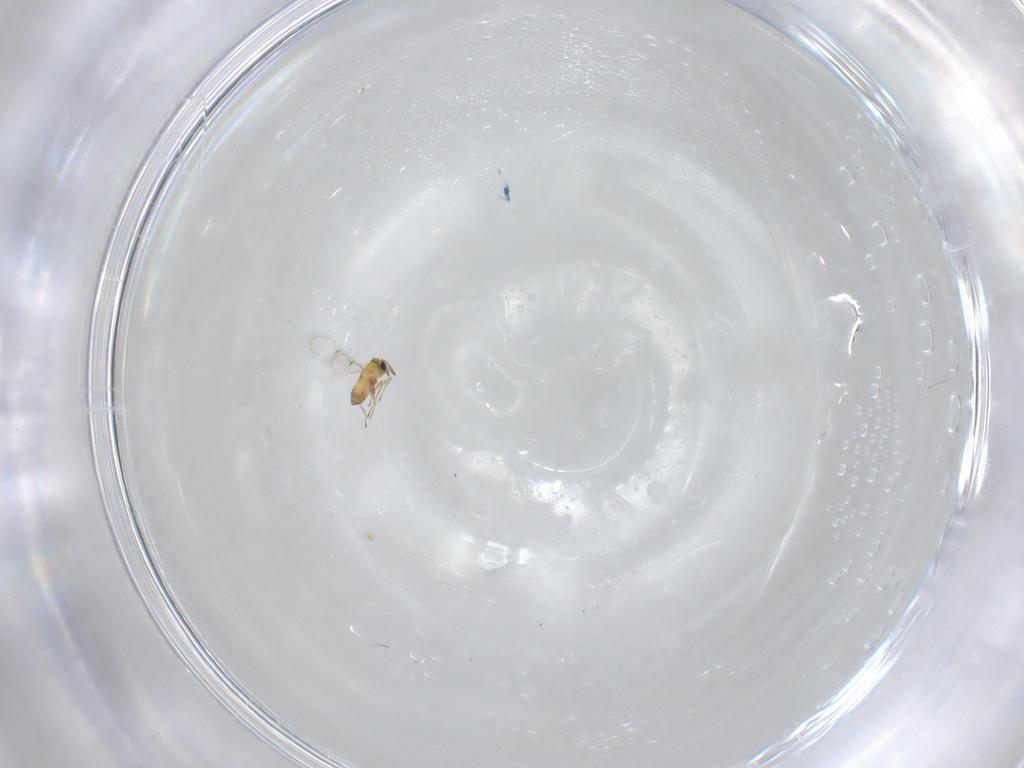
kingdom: Animalia
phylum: Arthropoda
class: Insecta
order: Hymenoptera
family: Trichogrammatidae
